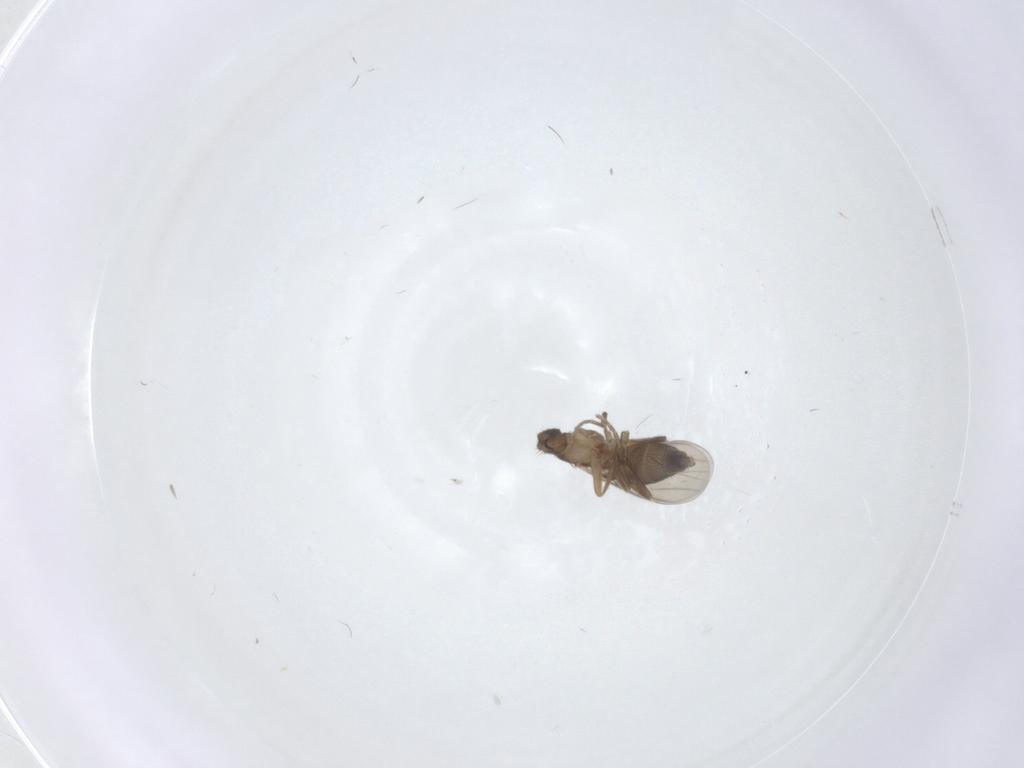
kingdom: Animalia
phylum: Arthropoda
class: Insecta
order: Diptera
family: Phoridae
